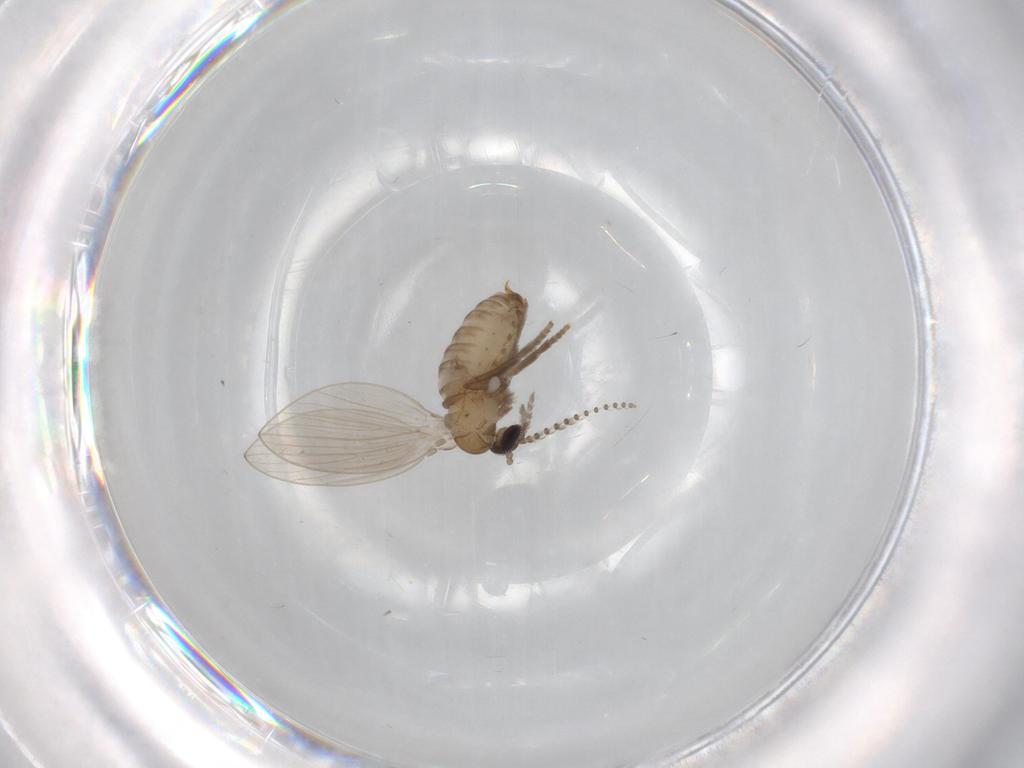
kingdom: Animalia
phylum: Arthropoda
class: Insecta
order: Diptera
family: Psychodidae
